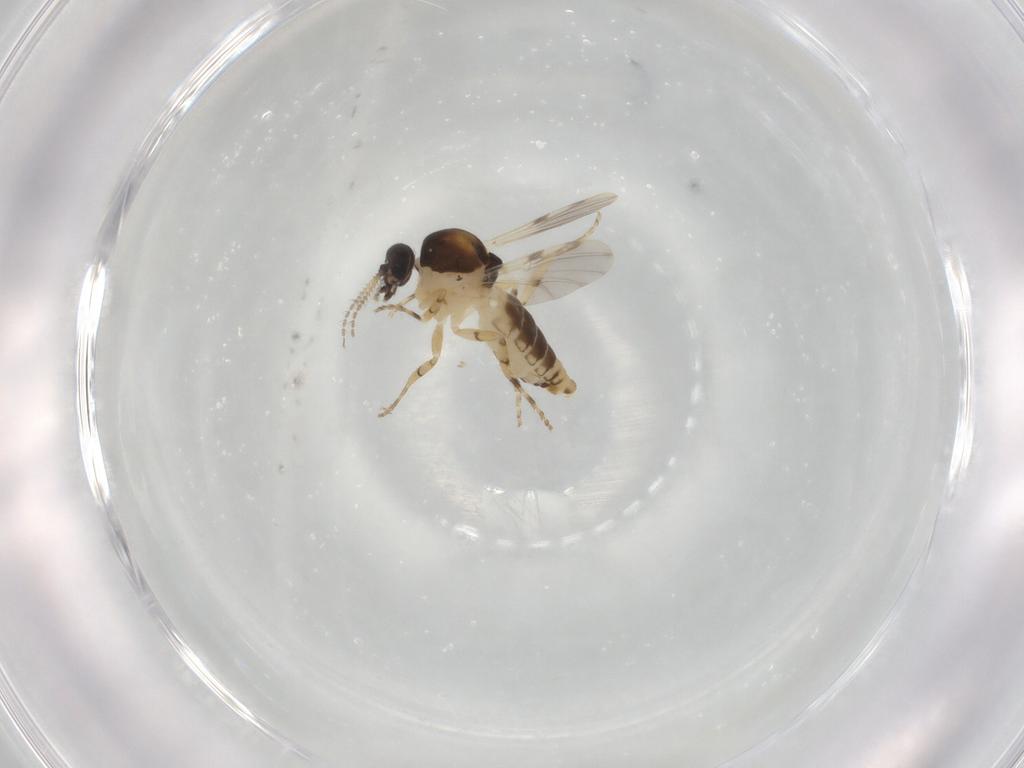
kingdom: Animalia
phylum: Arthropoda
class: Insecta
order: Diptera
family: Ceratopogonidae
